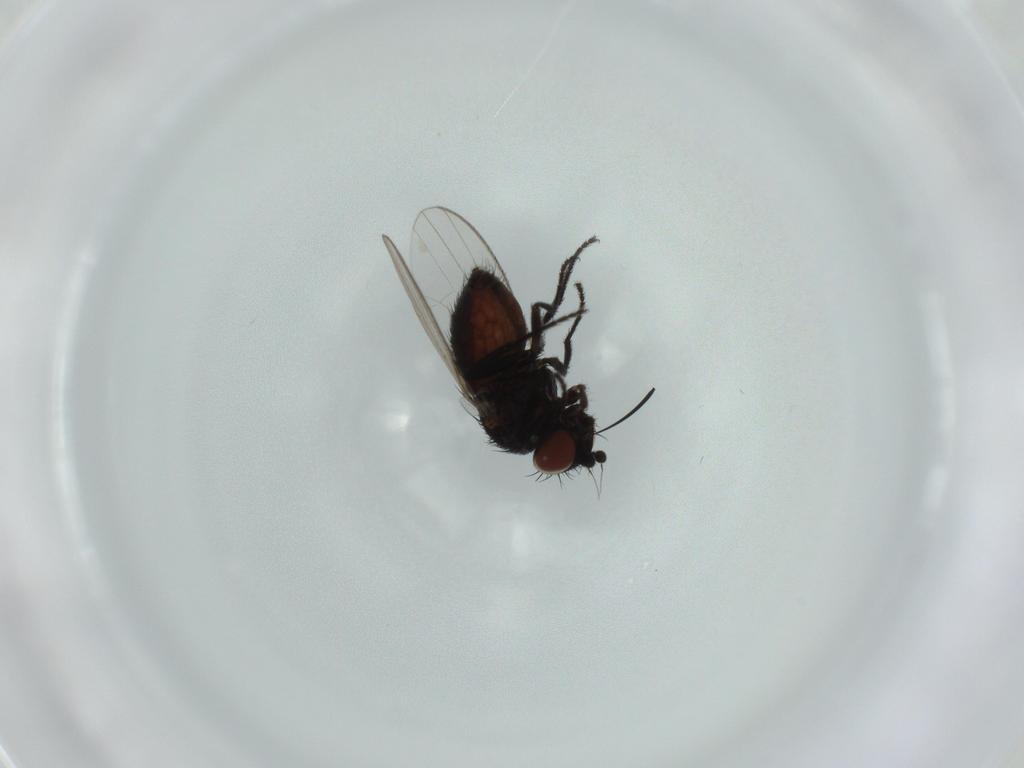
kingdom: Animalia
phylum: Arthropoda
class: Insecta
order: Diptera
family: Milichiidae
